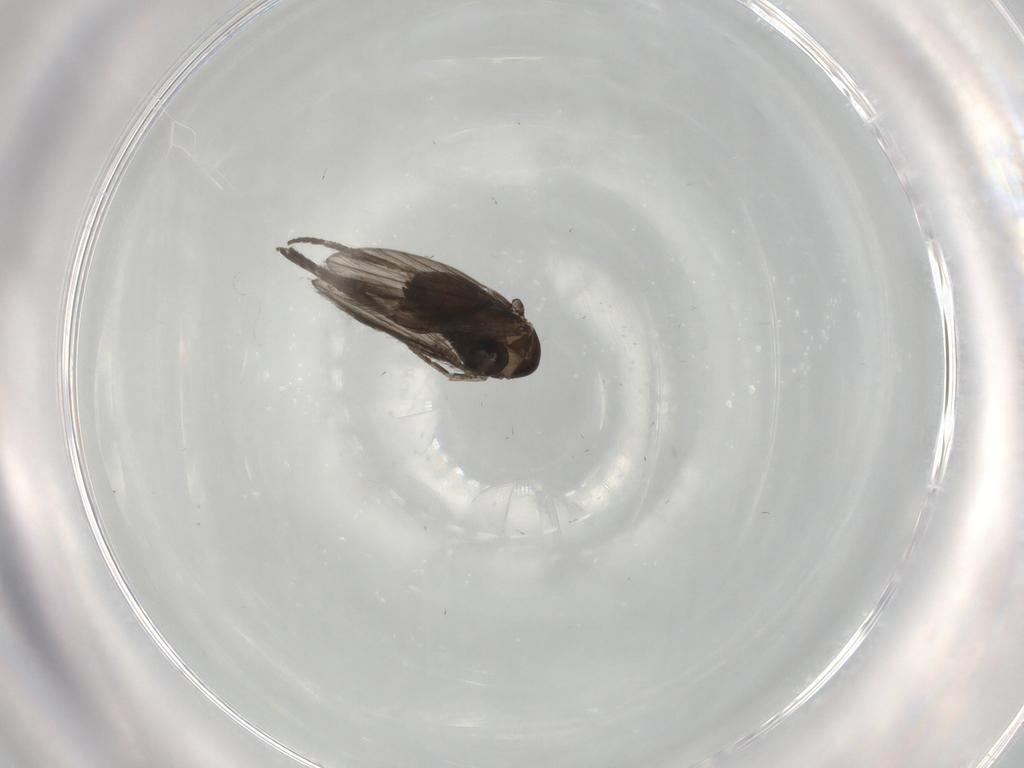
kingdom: Animalia
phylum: Arthropoda
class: Insecta
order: Diptera
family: Psychodidae
